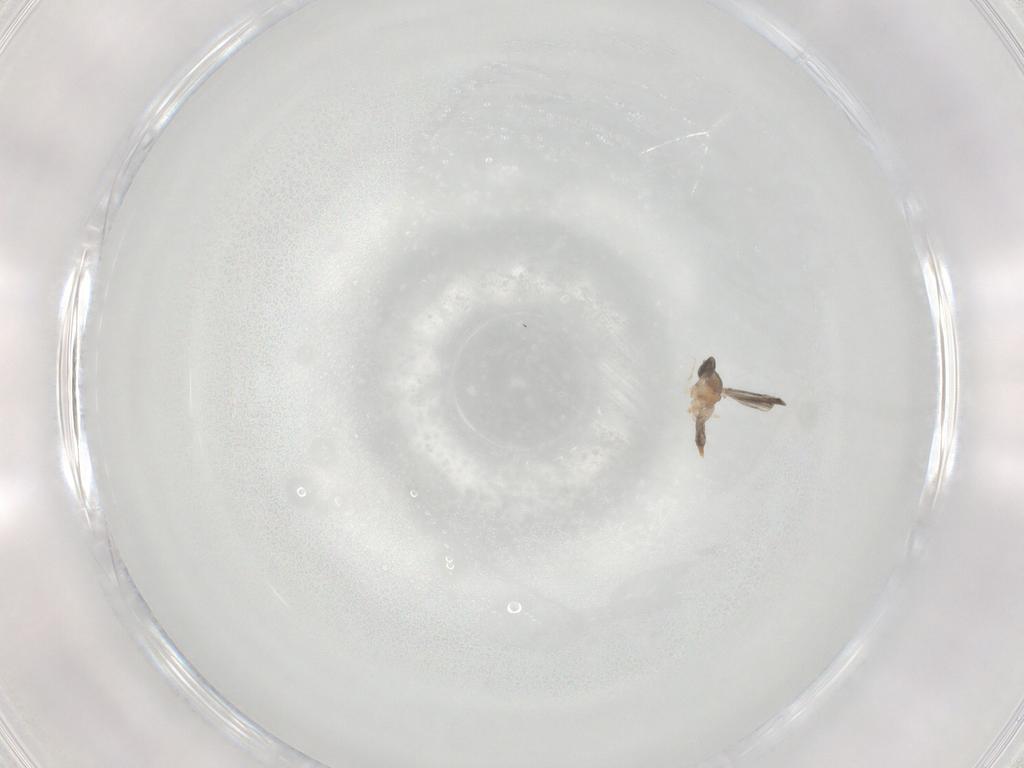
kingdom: Animalia
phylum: Arthropoda
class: Insecta
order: Diptera
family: Cecidomyiidae
